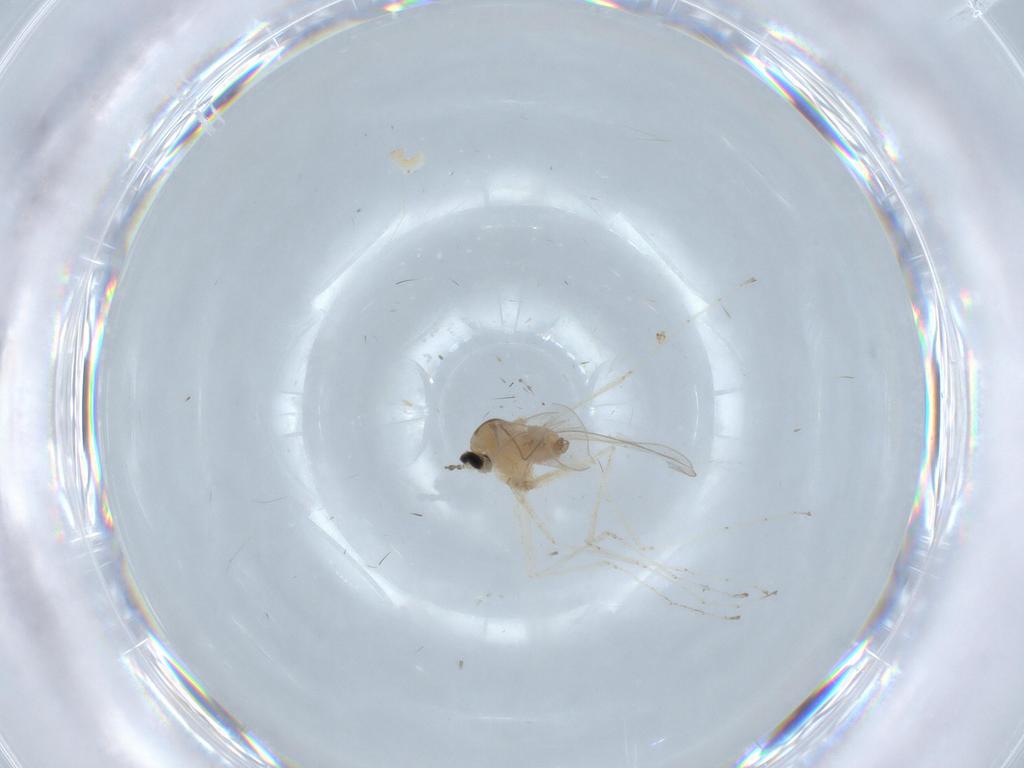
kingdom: Animalia
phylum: Arthropoda
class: Insecta
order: Diptera
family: Cecidomyiidae
